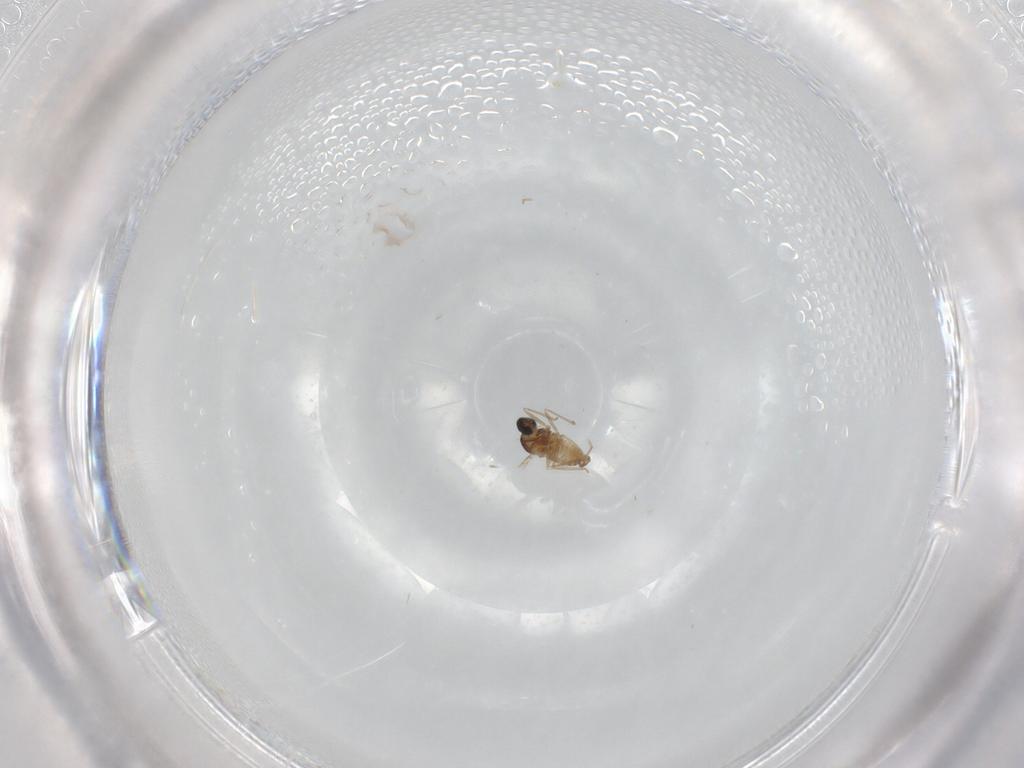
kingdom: Animalia
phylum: Arthropoda
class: Insecta
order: Diptera
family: Cecidomyiidae
